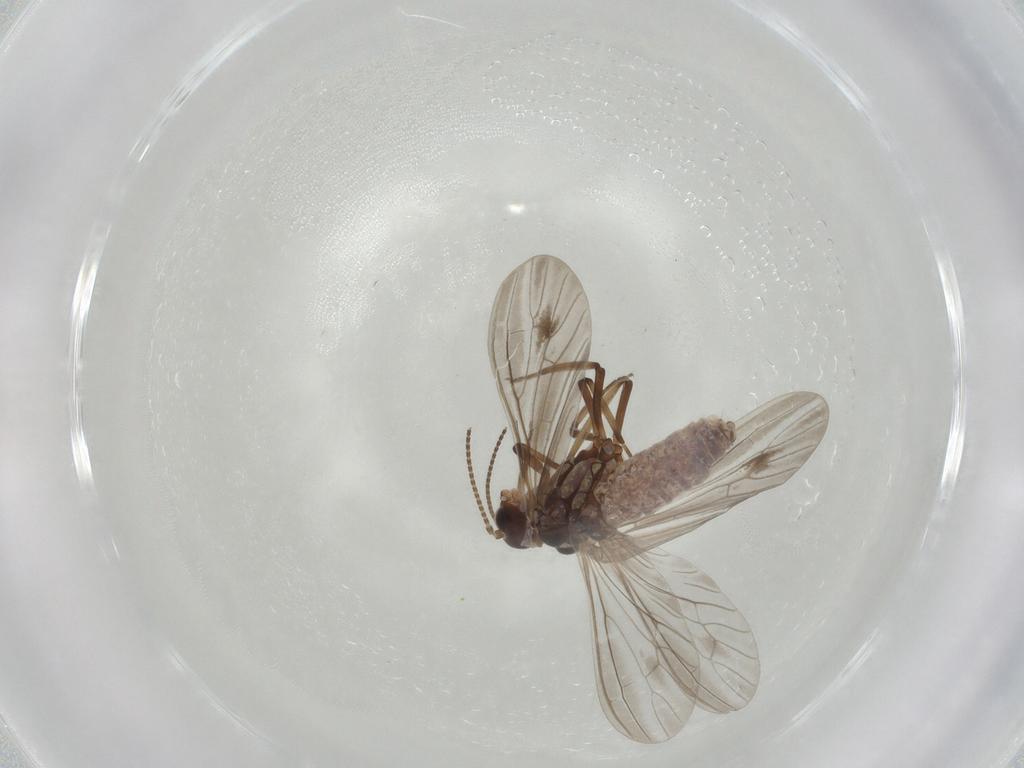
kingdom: Animalia
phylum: Arthropoda
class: Insecta
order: Neuroptera
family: Coniopterygidae
